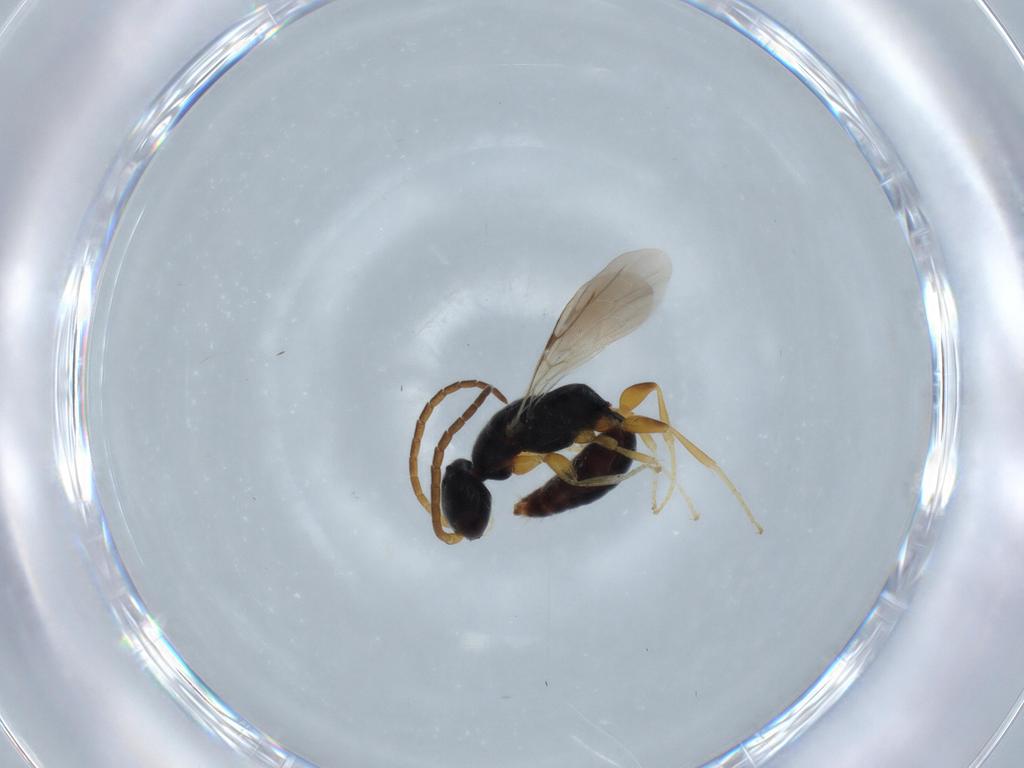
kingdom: Animalia
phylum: Arthropoda
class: Insecta
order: Hymenoptera
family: Bethylidae
